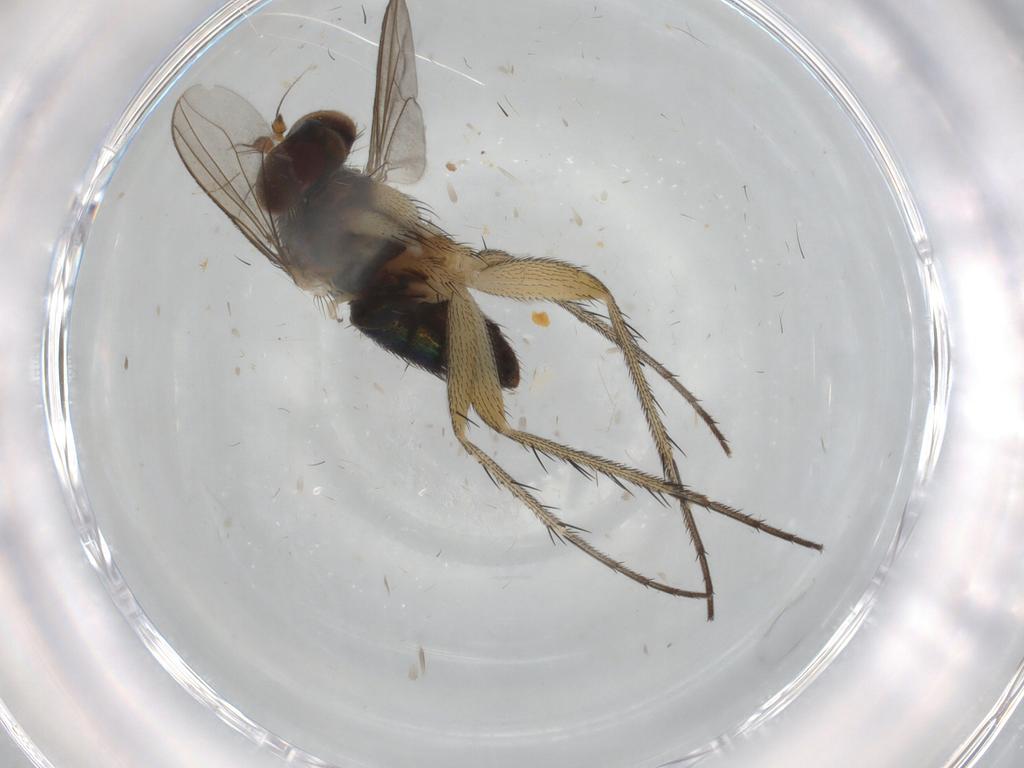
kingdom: Animalia
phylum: Arthropoda
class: Insecta
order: Diptera
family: Dolichopodidae
